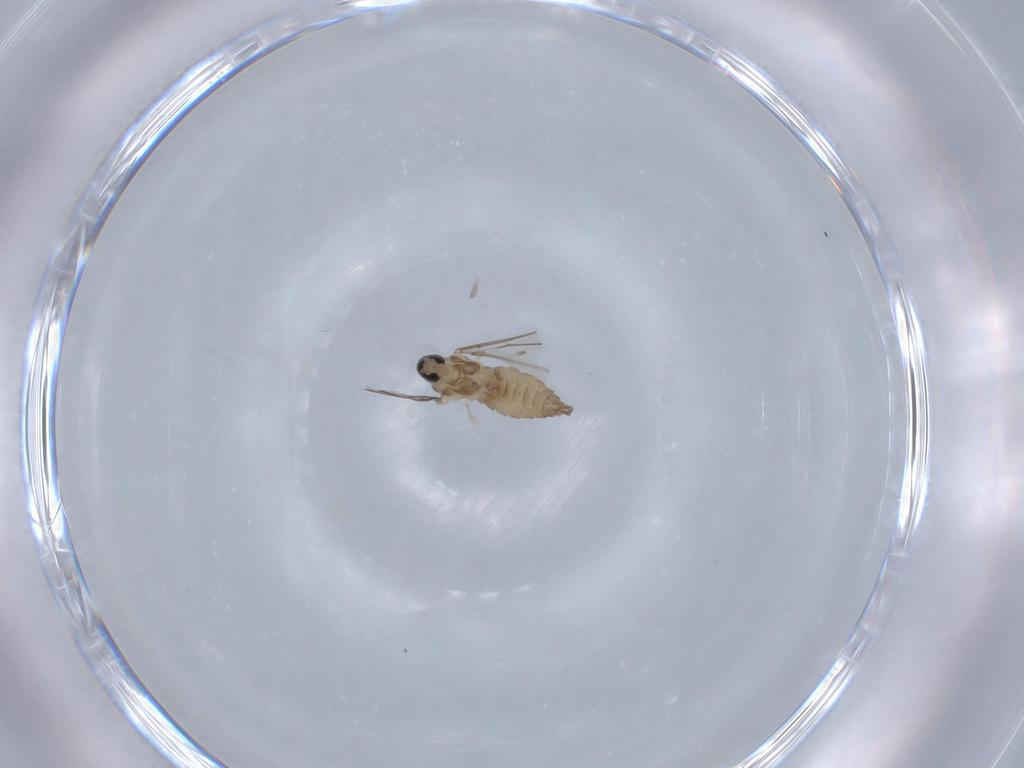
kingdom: Animalia
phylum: Arthropoda
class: Insecta
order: Diptera
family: Cecidomyiidae
